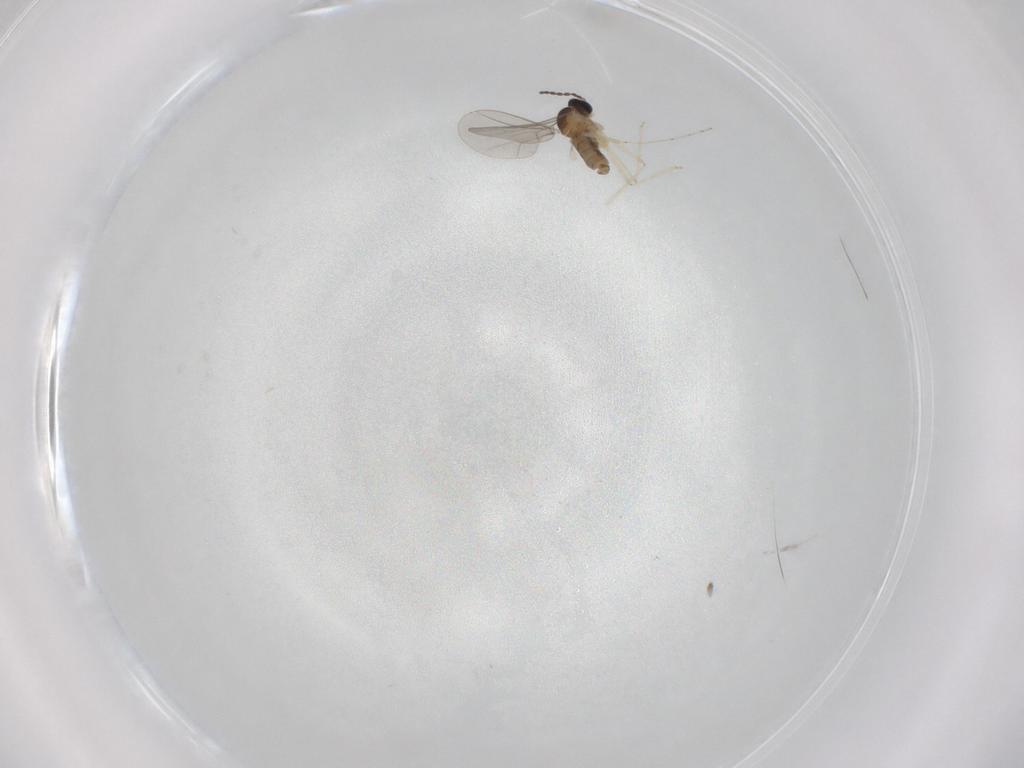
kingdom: Animalia
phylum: Arthropoda
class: Insecta
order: Diptera
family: Cecidomyiidae
